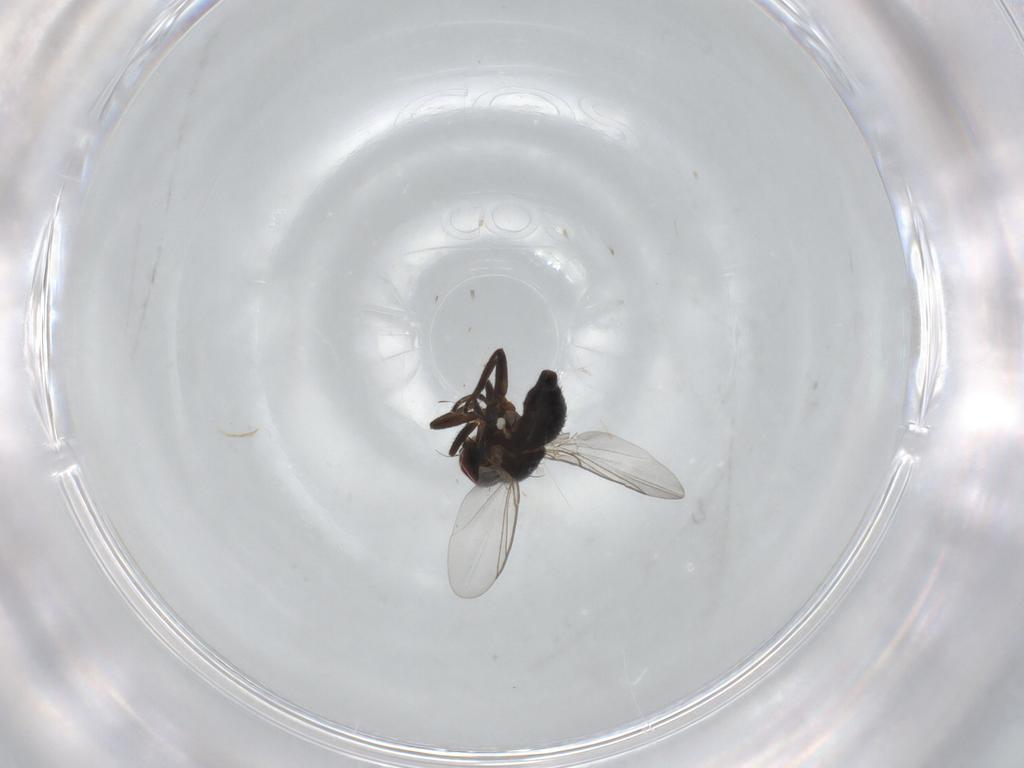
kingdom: Animalia
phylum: Arthropoda
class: Insecta
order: Diptera
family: Agromyzidae
